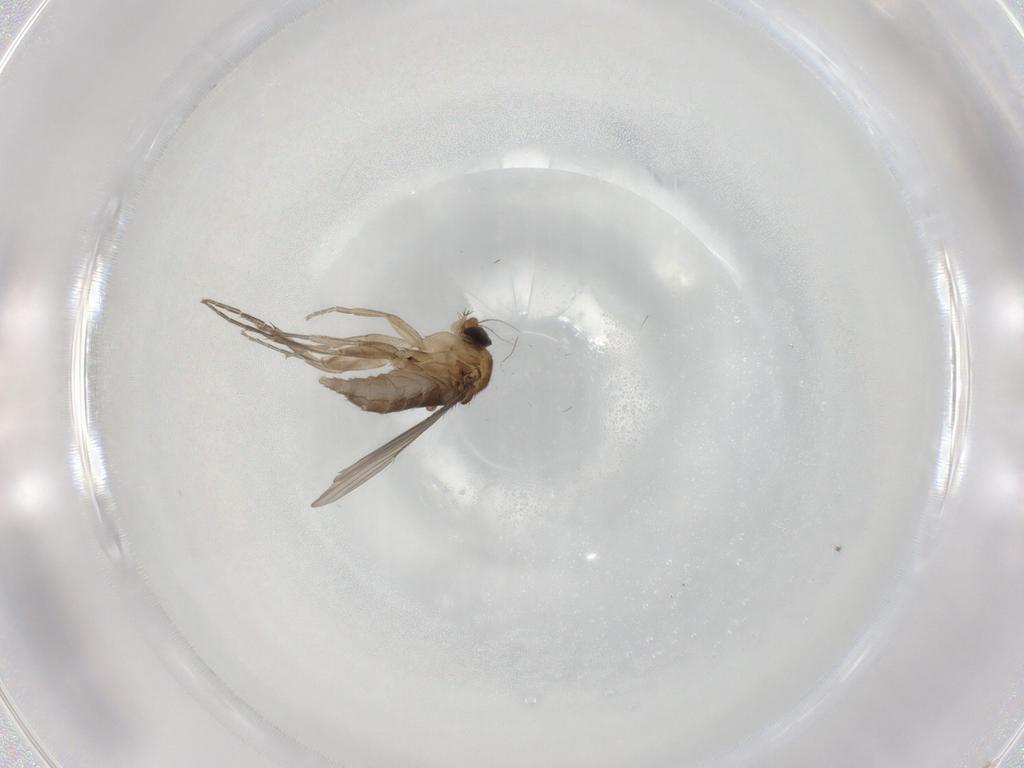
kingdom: Animalia
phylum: Arthropoda
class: Insecta
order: Diptera
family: Phoridae
